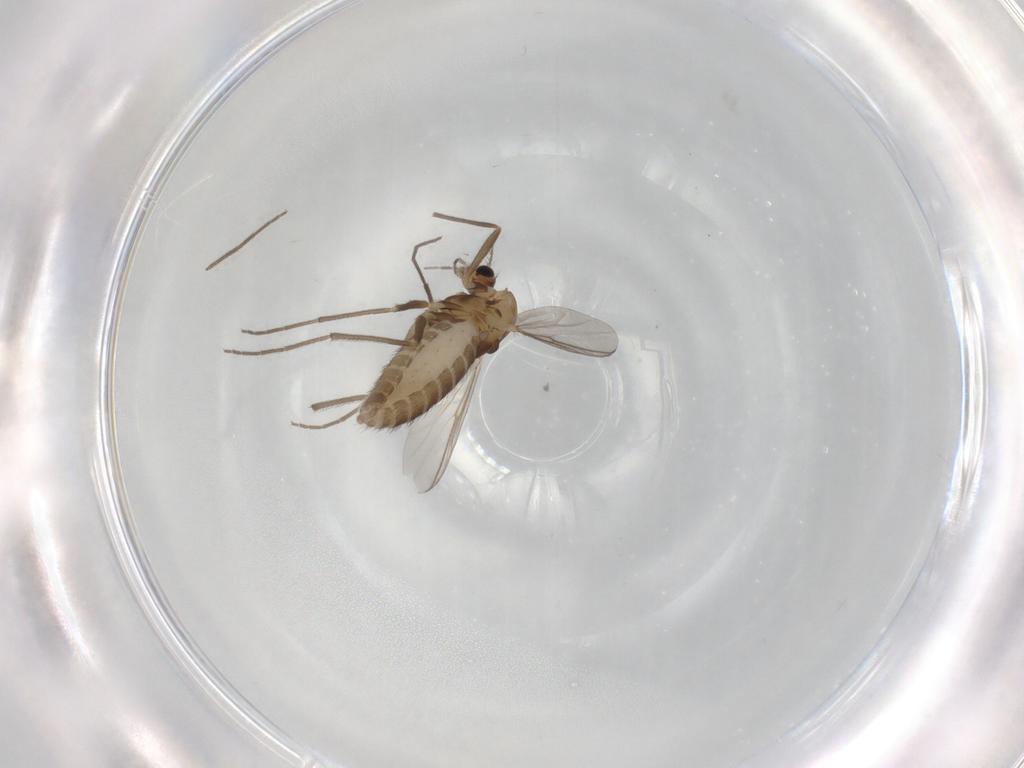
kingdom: Animalia
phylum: Arthropoda
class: Insecta
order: Diptera
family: Chironomidae
